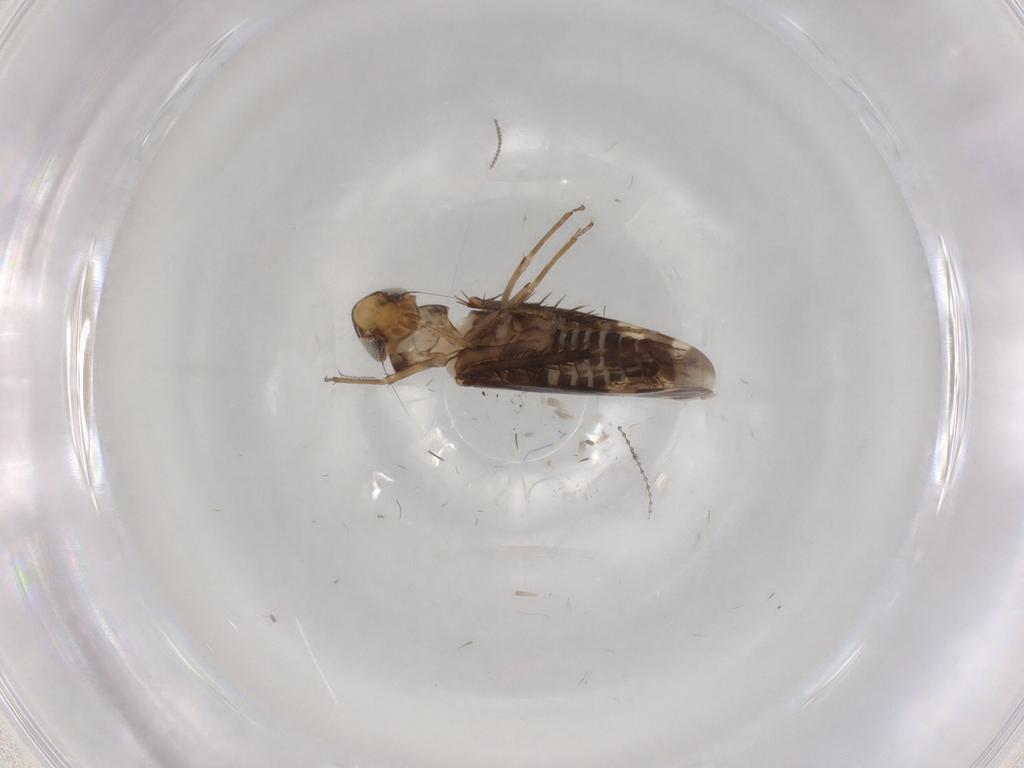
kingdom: Animalia
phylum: Arthropoda
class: Insecta
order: Hemiptera
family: Cicadellidae
